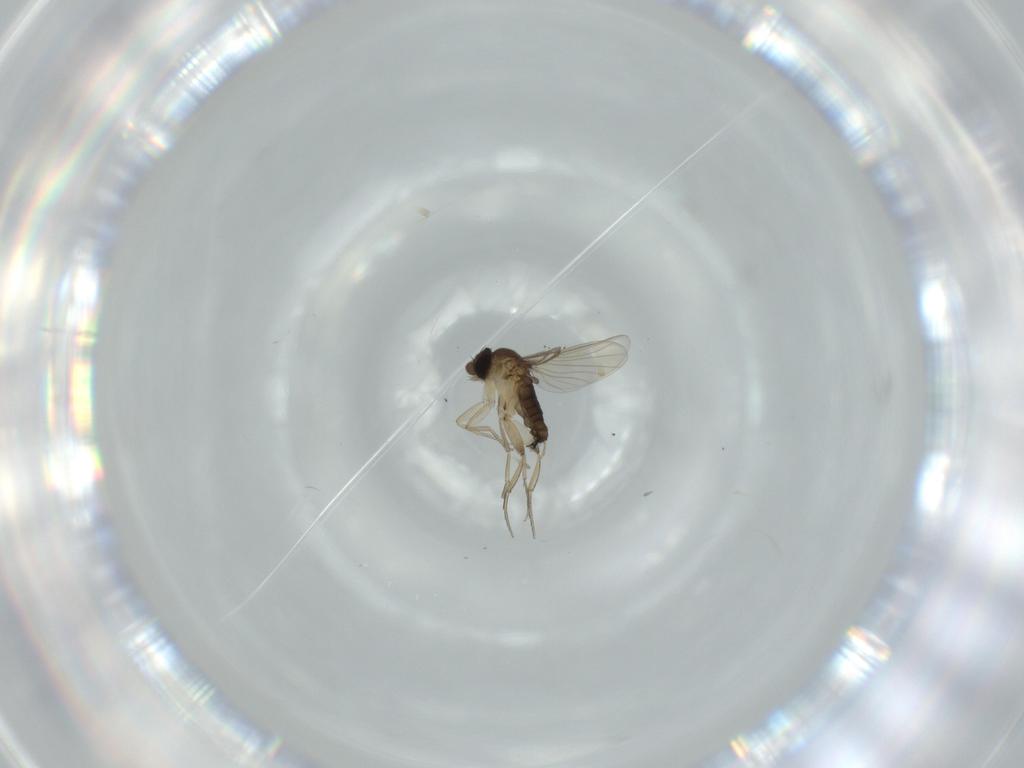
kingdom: Animalia
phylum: Arthropoda
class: Insecta
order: Diptera
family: Phoridae
